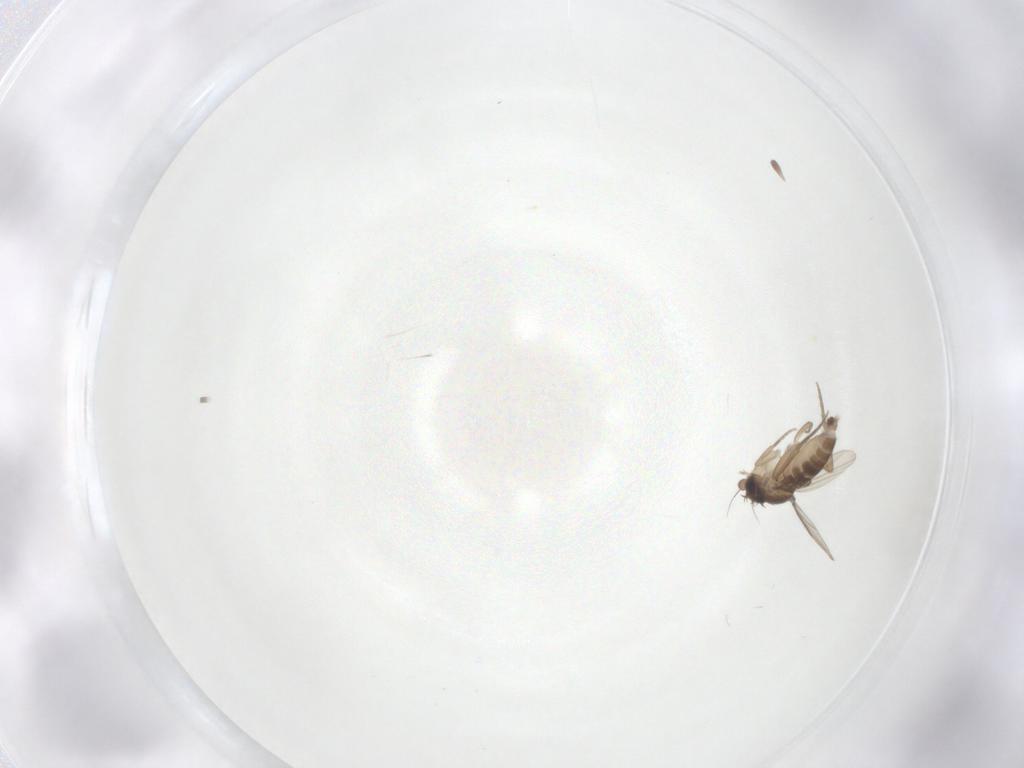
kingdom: Animalia
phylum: Arthropoda
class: Insecta
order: Diptera
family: Phoridae
